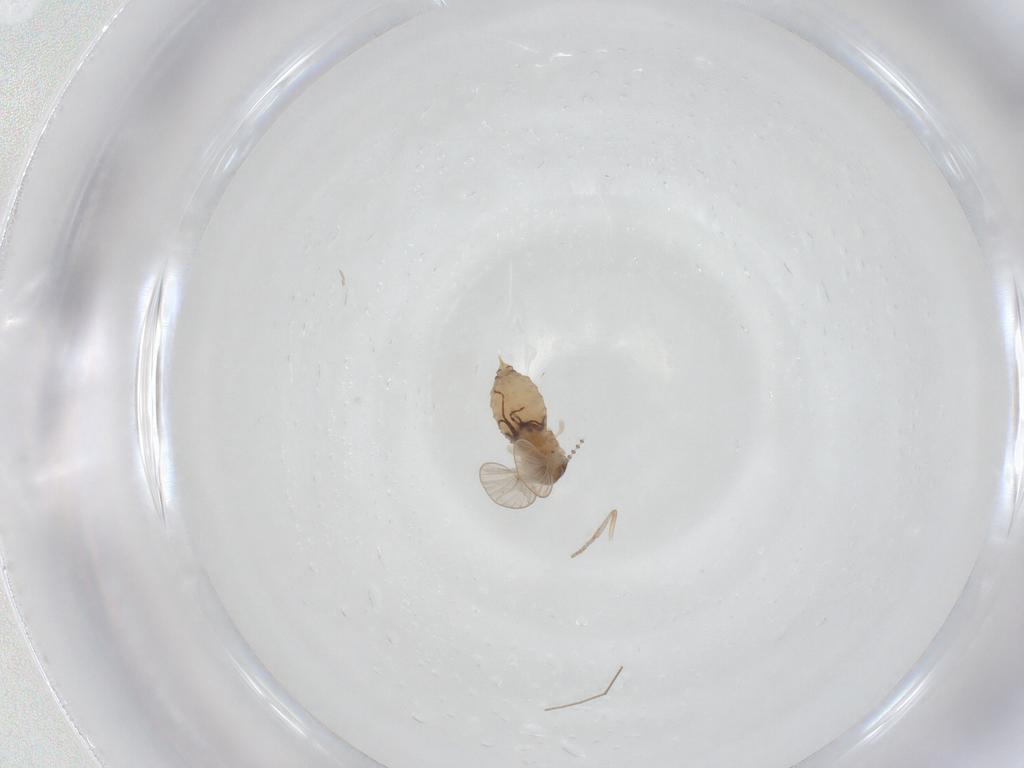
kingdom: Animalia
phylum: Arthropoda
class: Insecta
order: Diptera
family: Psychodidae
